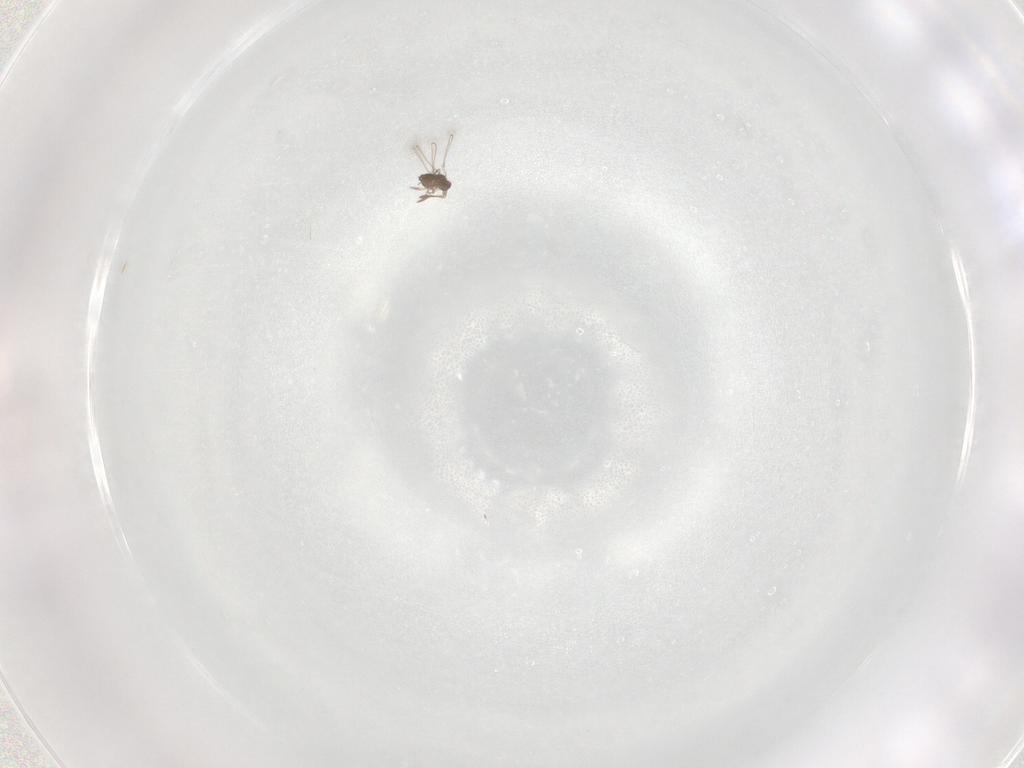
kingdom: Animalia
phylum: Arthropoda
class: Insecta
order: Hymenoptera
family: Mymaridae
